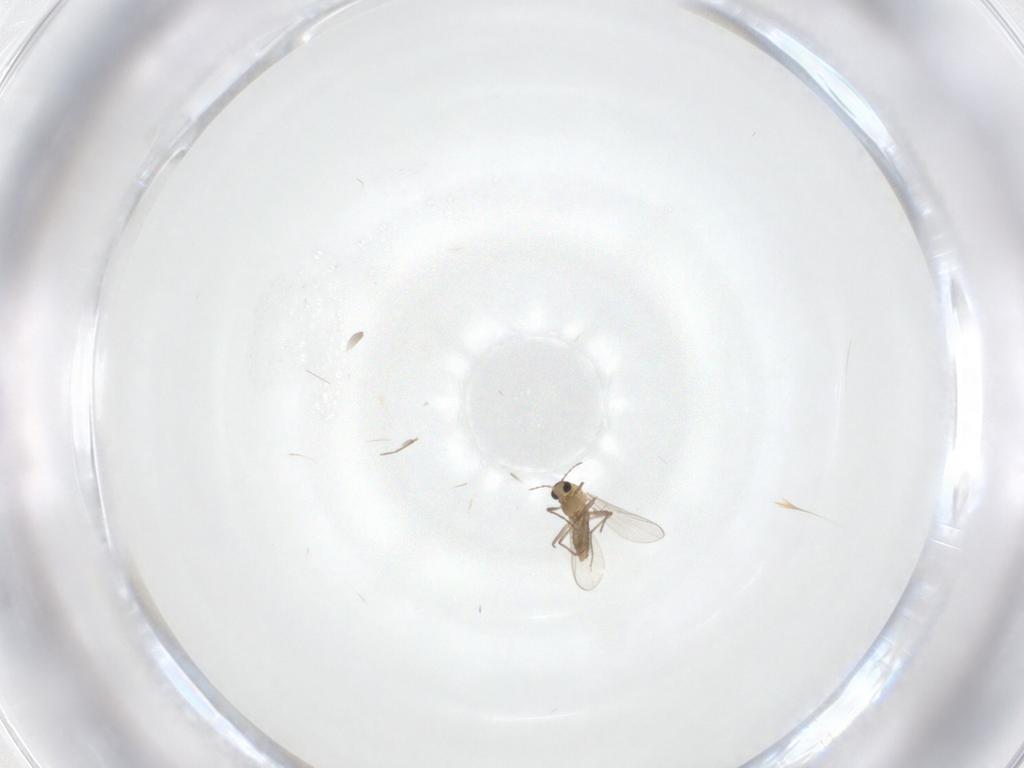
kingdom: Animalia
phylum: Arthropoda
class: Insecta
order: Diptera
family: Chironomidae
